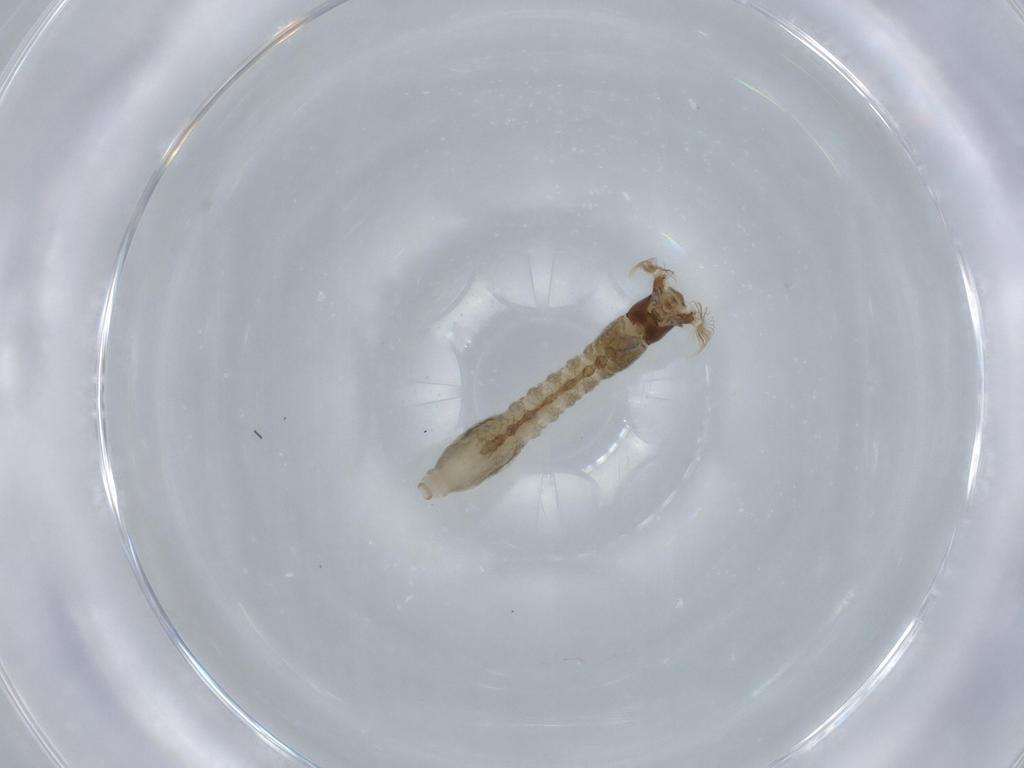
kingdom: Animalia
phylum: Arthropoda
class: Insecta
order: Diptera
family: Simuliidae
